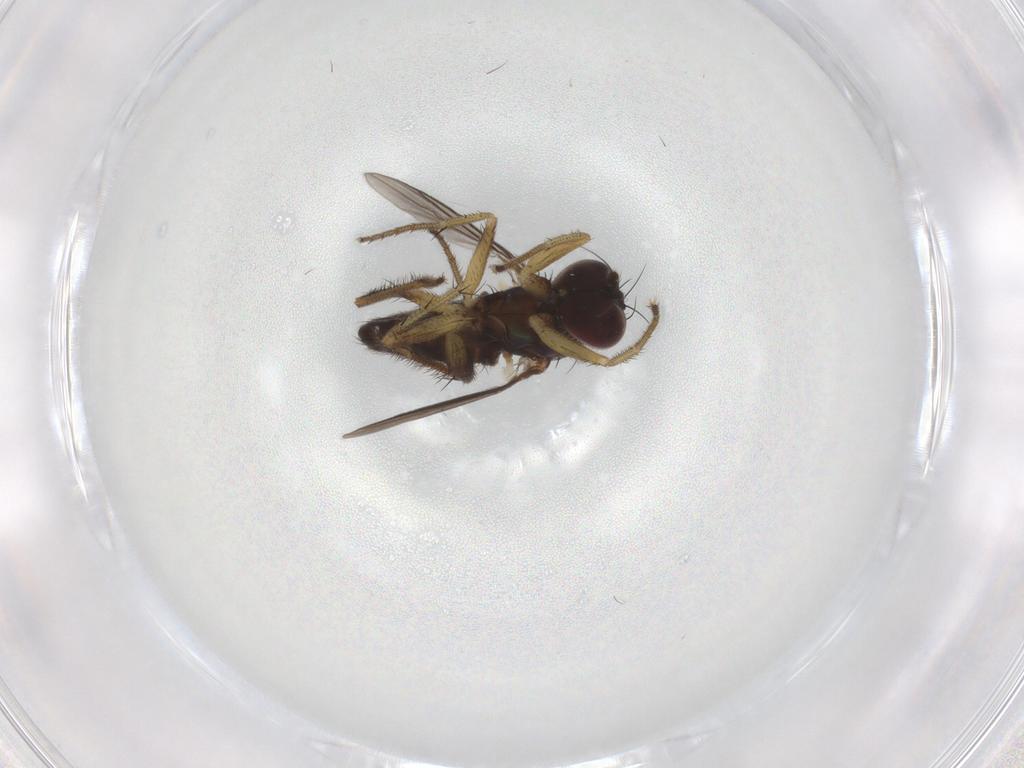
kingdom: Animalia
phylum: Arthropoda
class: Insecta
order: Diptera
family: Dolichopodidae
